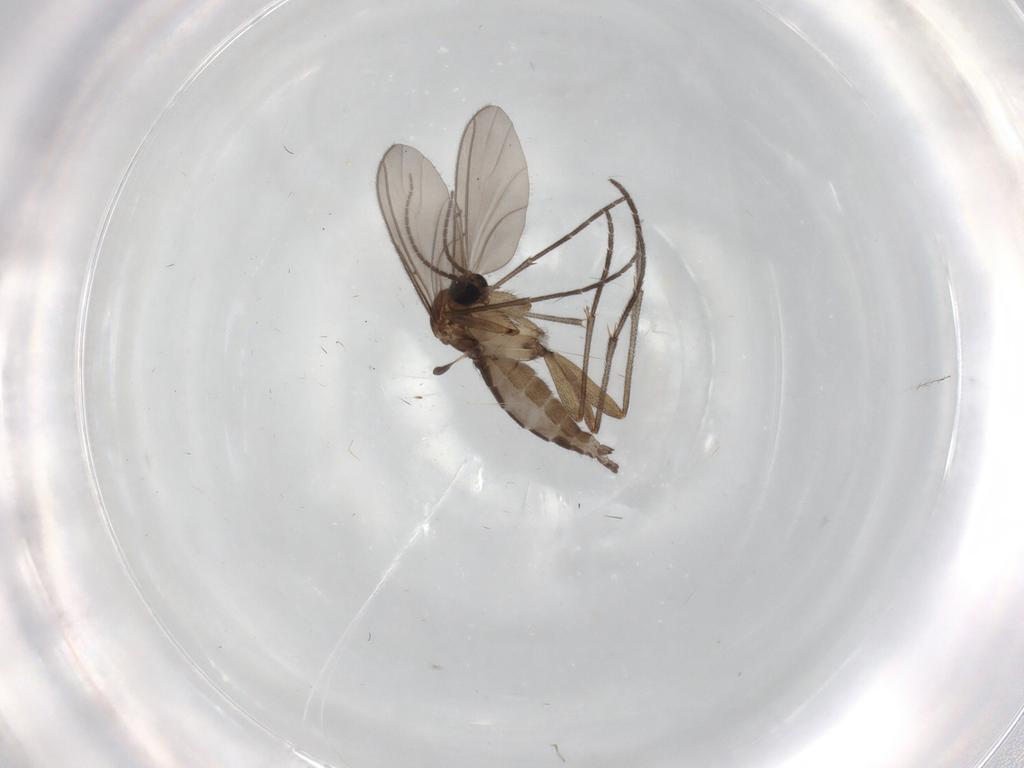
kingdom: Animalia
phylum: Arthropoda
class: Insecta
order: Diptera
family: Sciaridae
